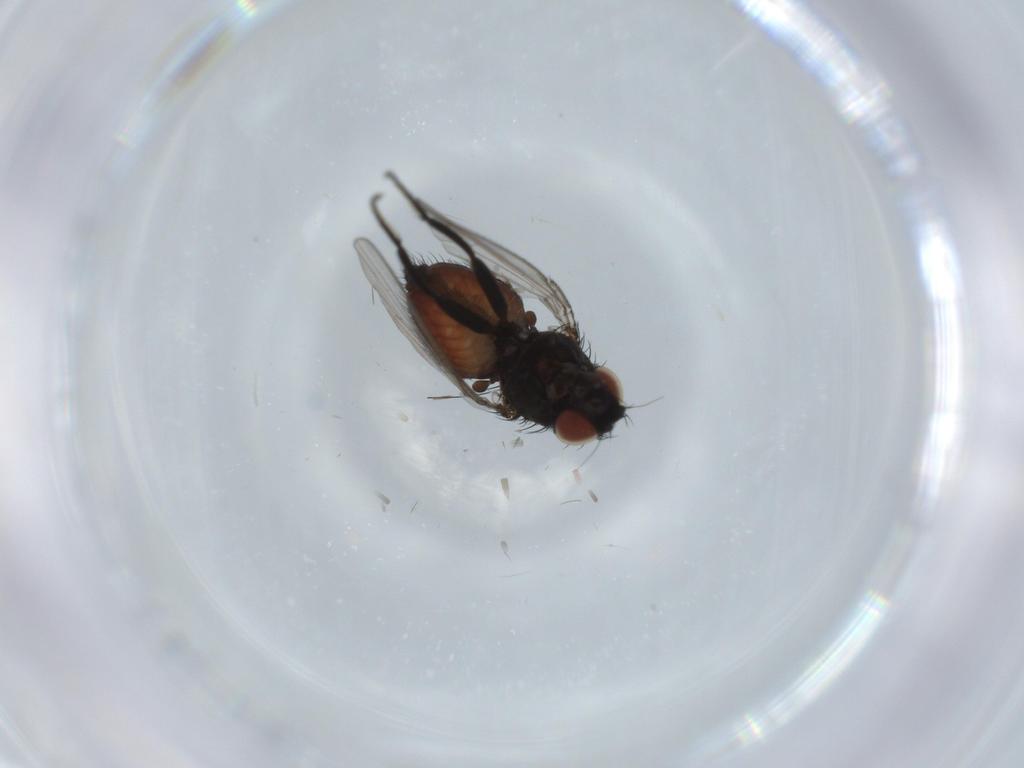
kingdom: Animalia
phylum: Arthropoda
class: Insecta
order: Diptera
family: Milichiidae
